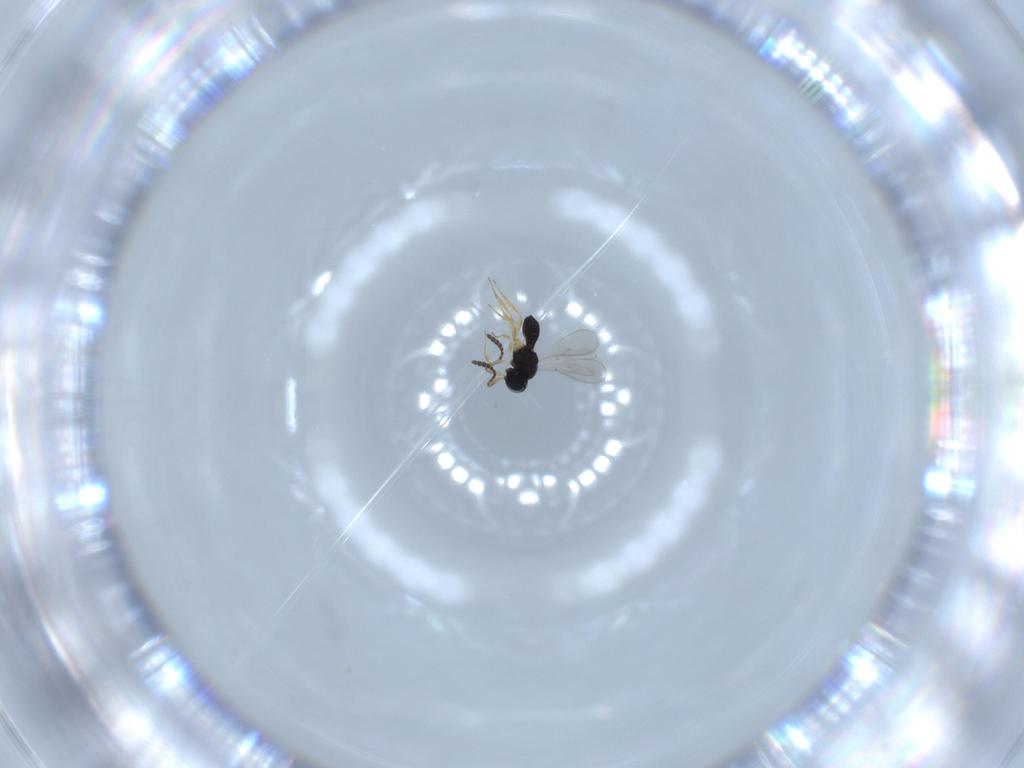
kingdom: Animalia
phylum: Arthropoda
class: Insecta
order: Hymenoptera
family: Scelionidae
